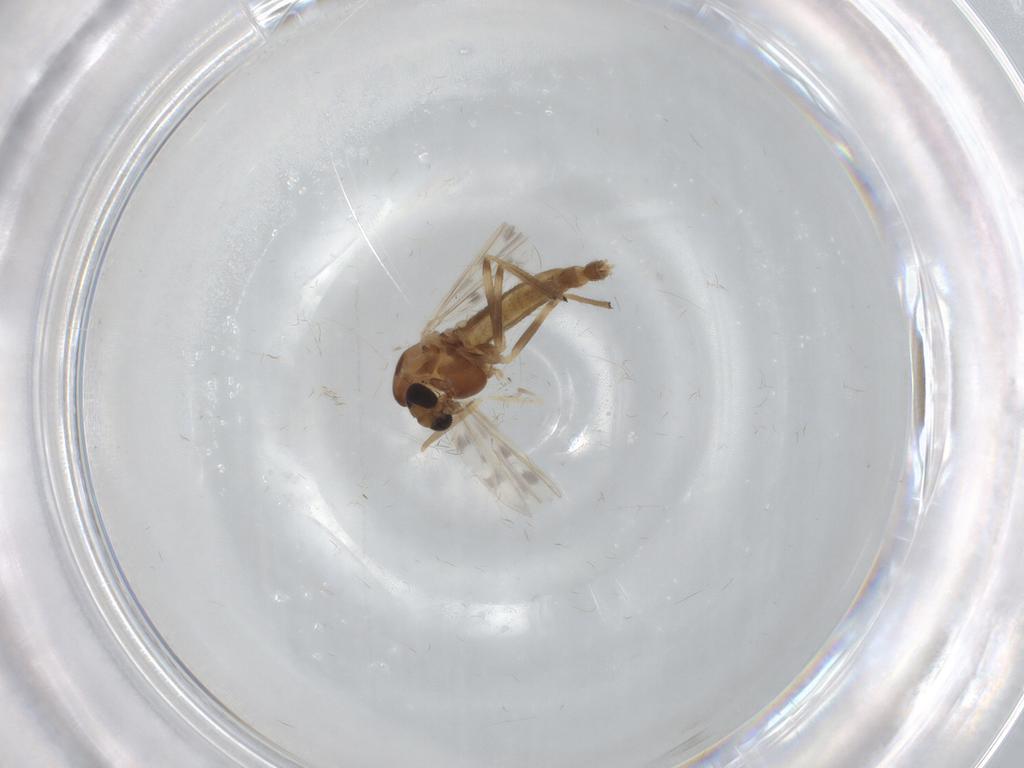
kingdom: Animalia
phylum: Arthropoda
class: Insecta
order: Diptera
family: Chironomidae
